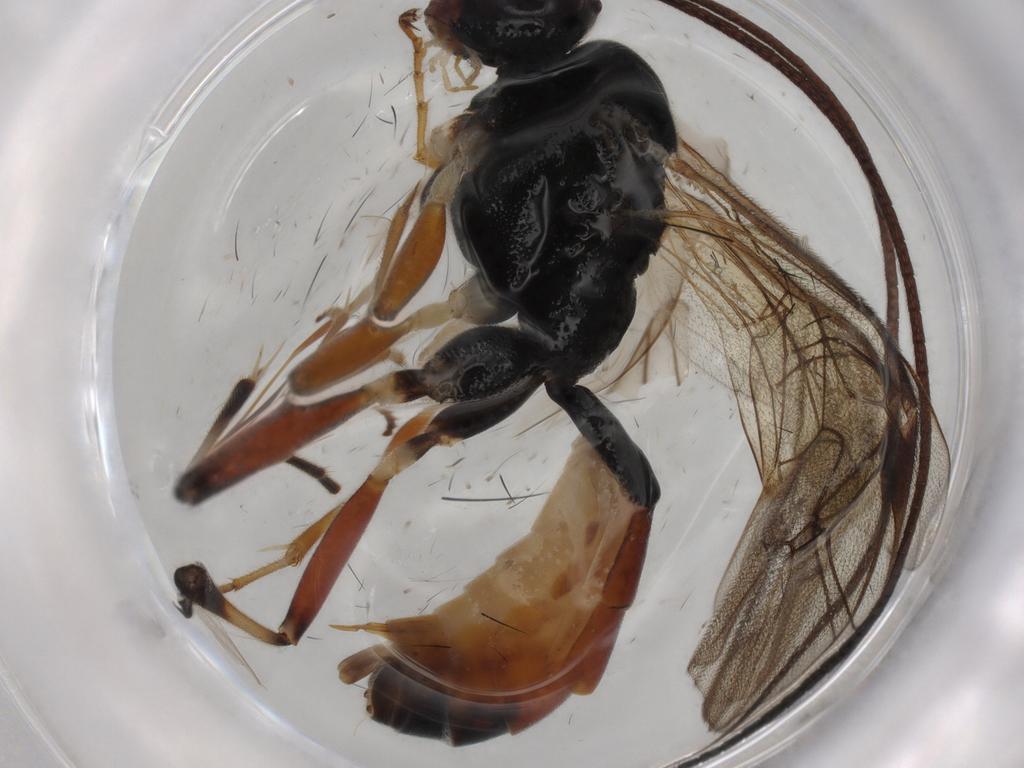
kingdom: Animalia
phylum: Arthropoda
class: Insecta
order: Hymenoptera
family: Ichneumonidae
